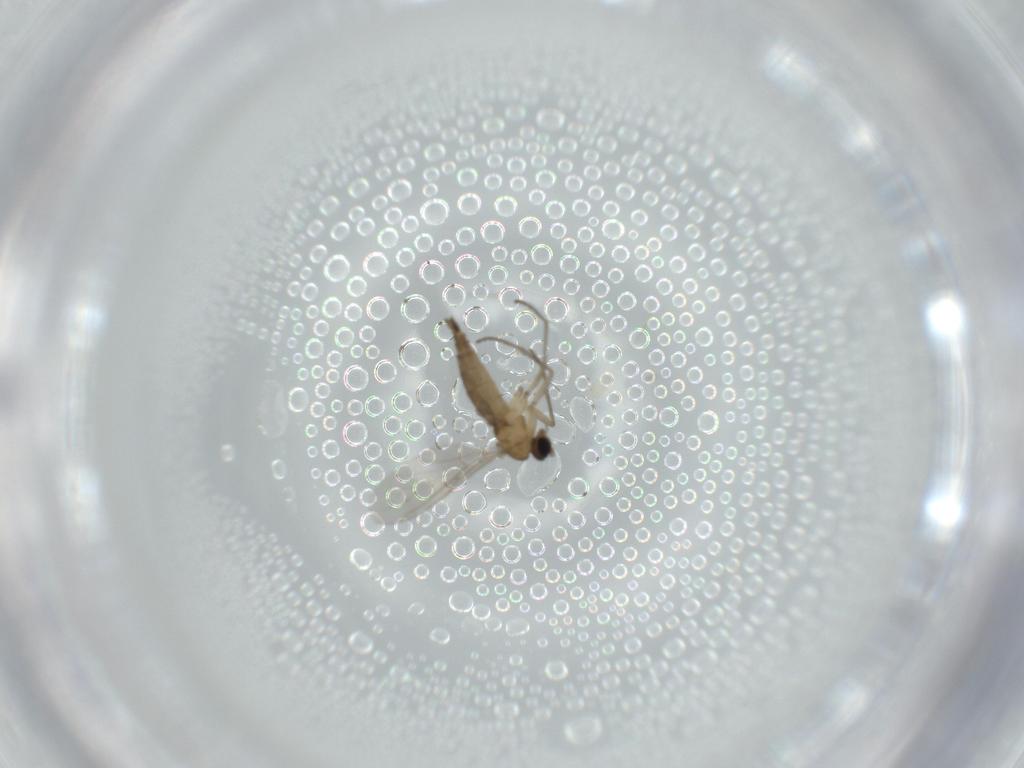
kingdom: Animalia
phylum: Arthropoda
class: Insecta
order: Diptera
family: Sciaridae
